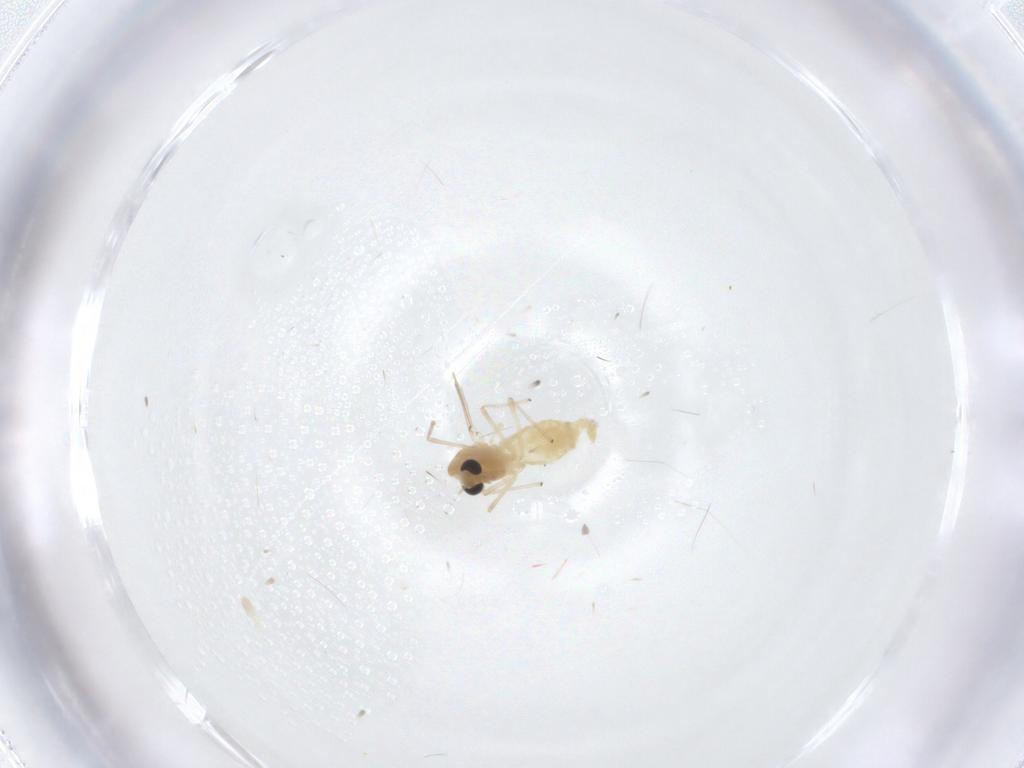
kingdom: Animalia
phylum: Arthropoda
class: Insecta
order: Diptera
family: Chironomidae
